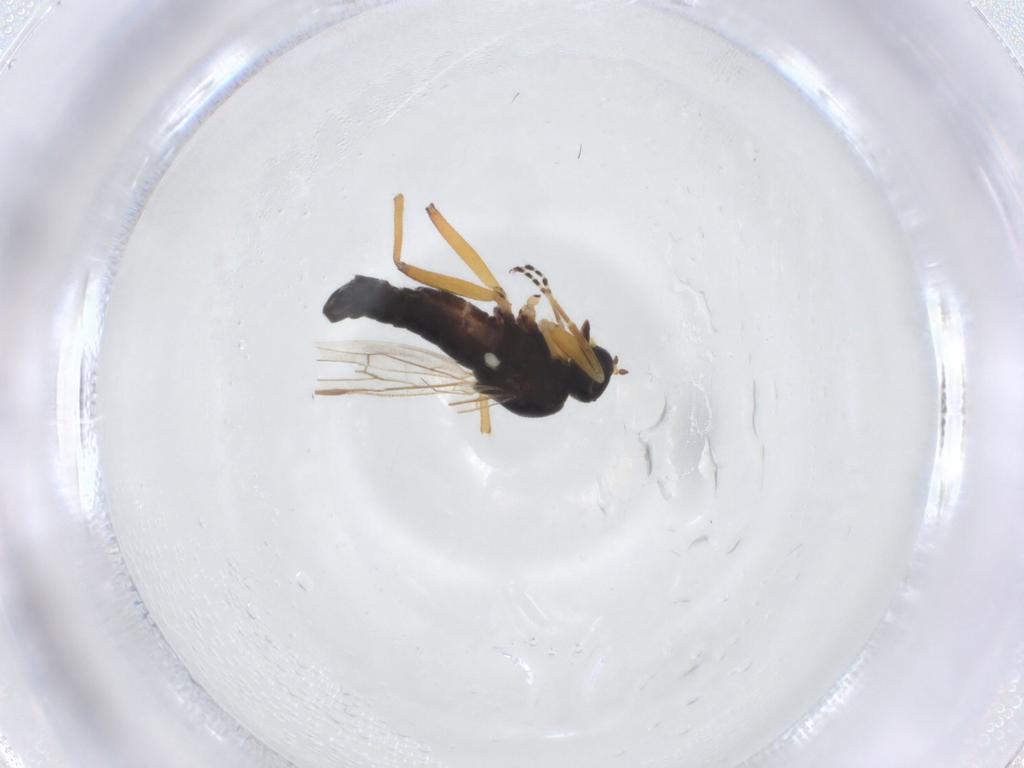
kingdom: Animalia
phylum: Arthropoda
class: Insecta
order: Diptera
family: Hybotidae
